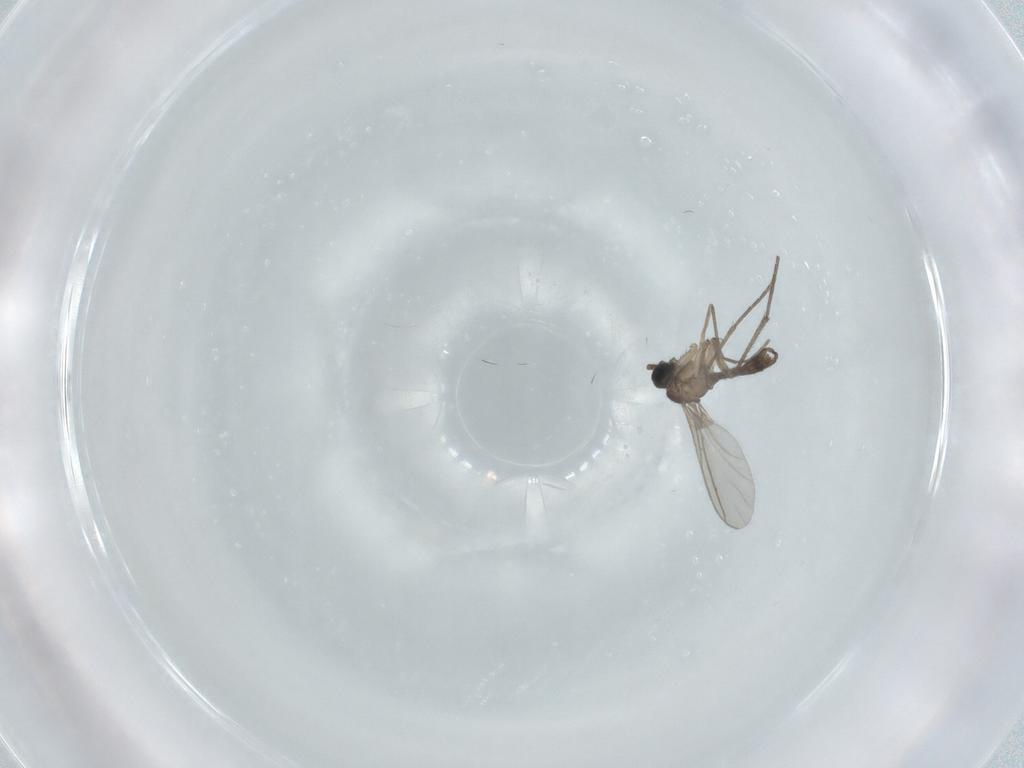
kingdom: Animalia
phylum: Arthropoda
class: Insecta
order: Diptera
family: Sciaridae
